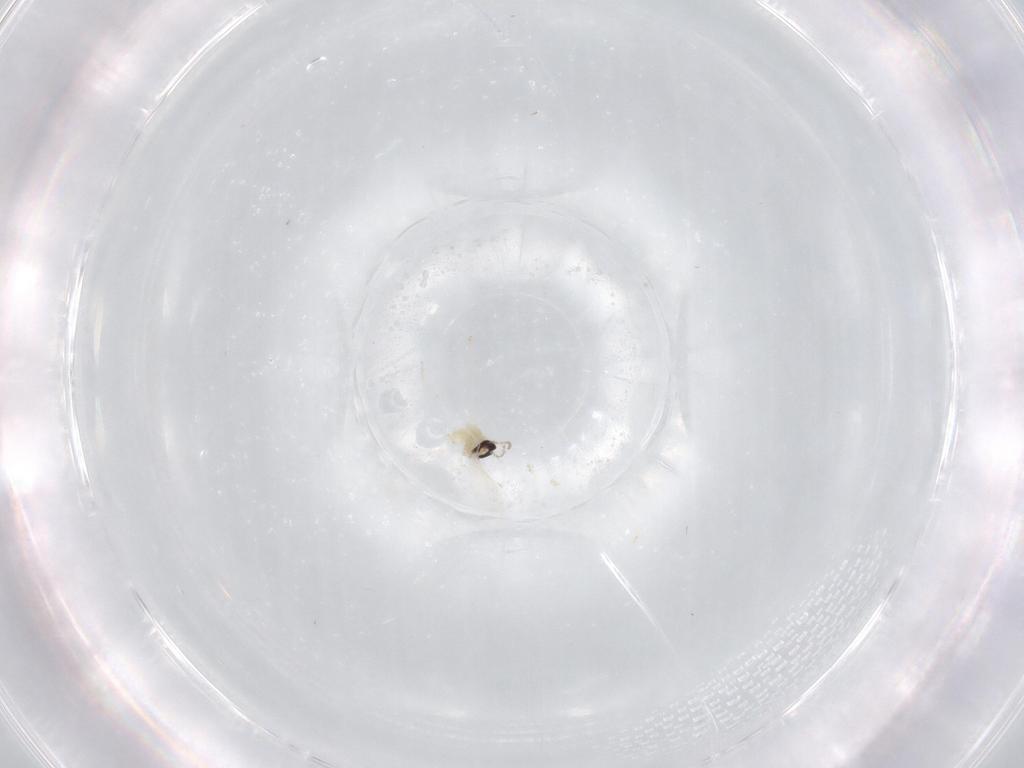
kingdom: Animalia
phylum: Arthropoda
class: Insecta
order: Diptera
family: Cecidomyiidae
